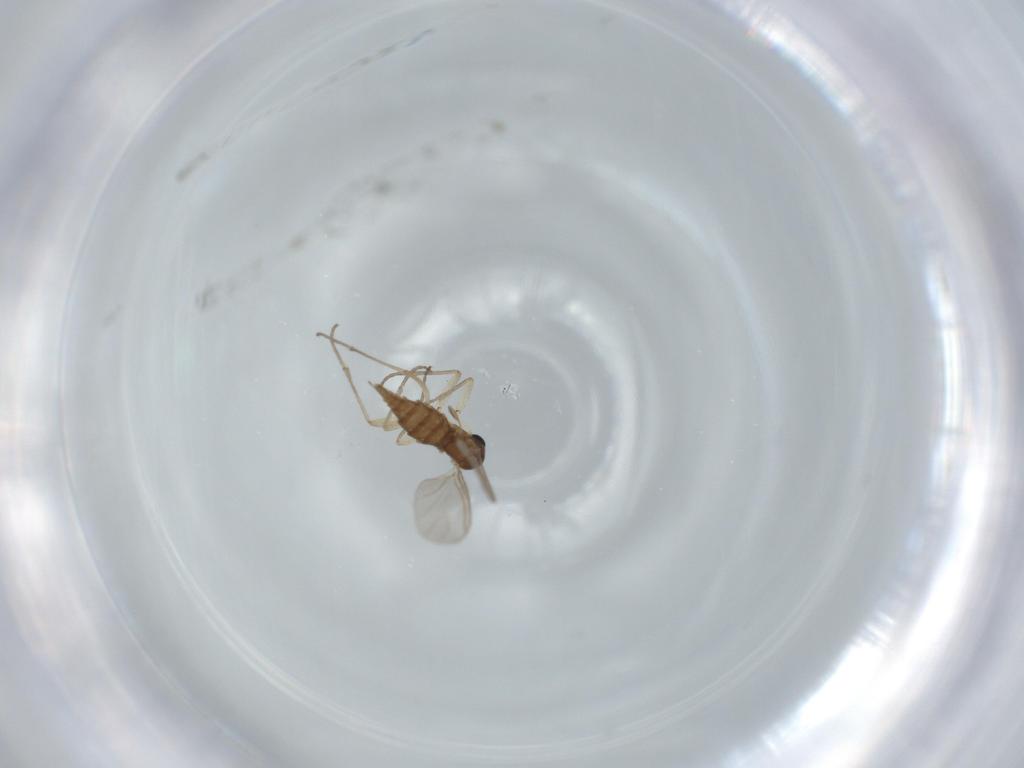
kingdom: Animalia
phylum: Arthropoda
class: Insecta
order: Diptera
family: Sciaridae
